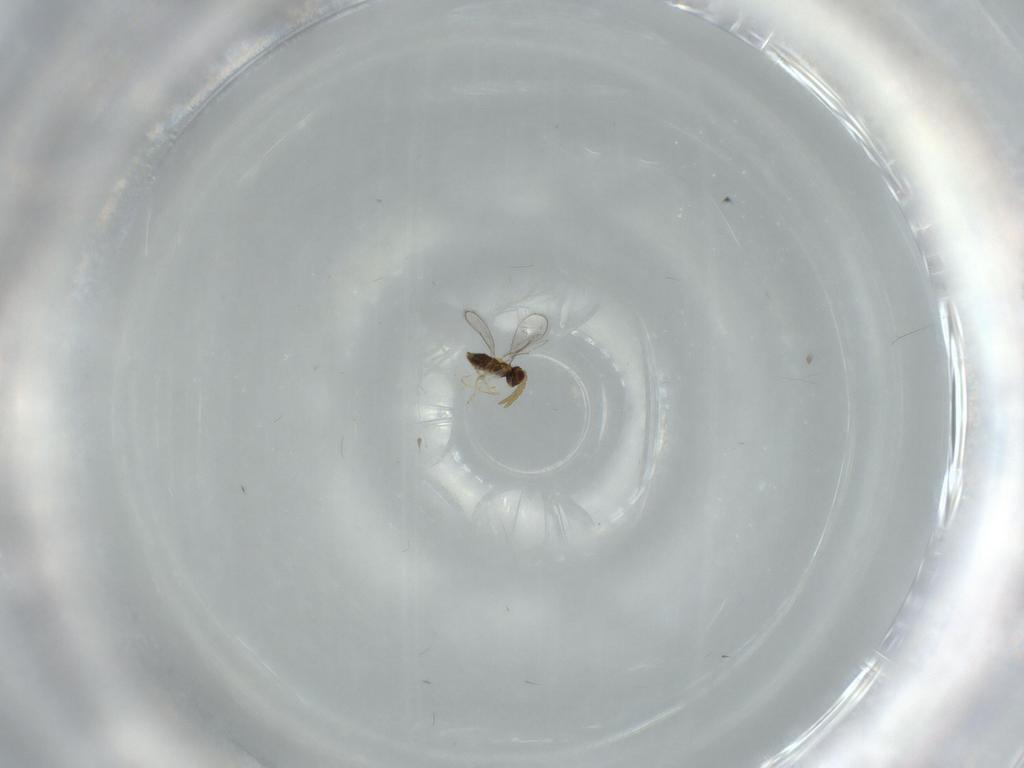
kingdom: Animalia
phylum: Arthropoda
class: Insecta
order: Hymenoptera
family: Aphelinidae
